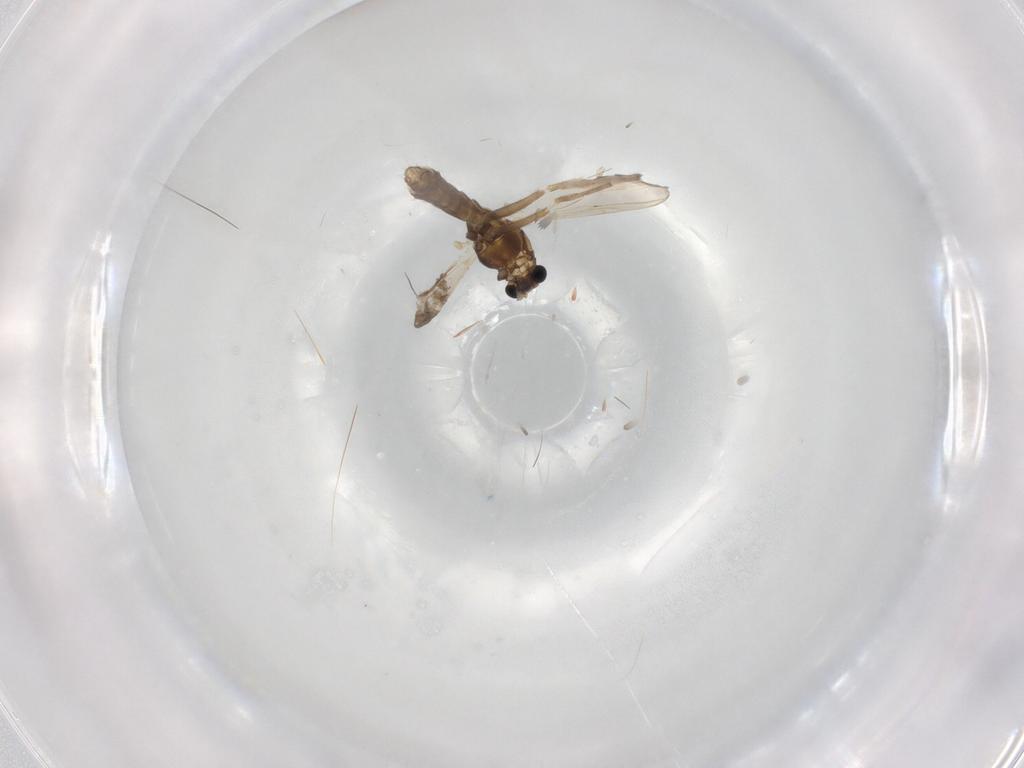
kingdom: Animalia
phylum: Arthropoda
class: Insecta
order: Diptera
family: Chironomidae
